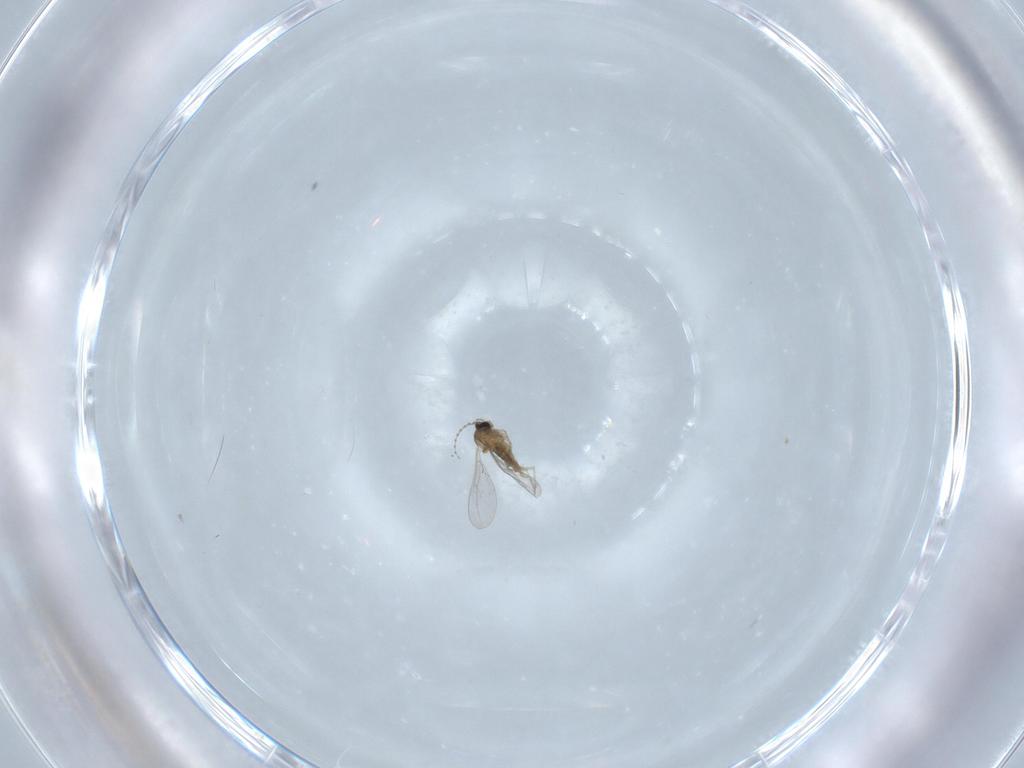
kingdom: Animalia
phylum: Arthropoda
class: Insecta
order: Diptera
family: Cecidomyiidae
